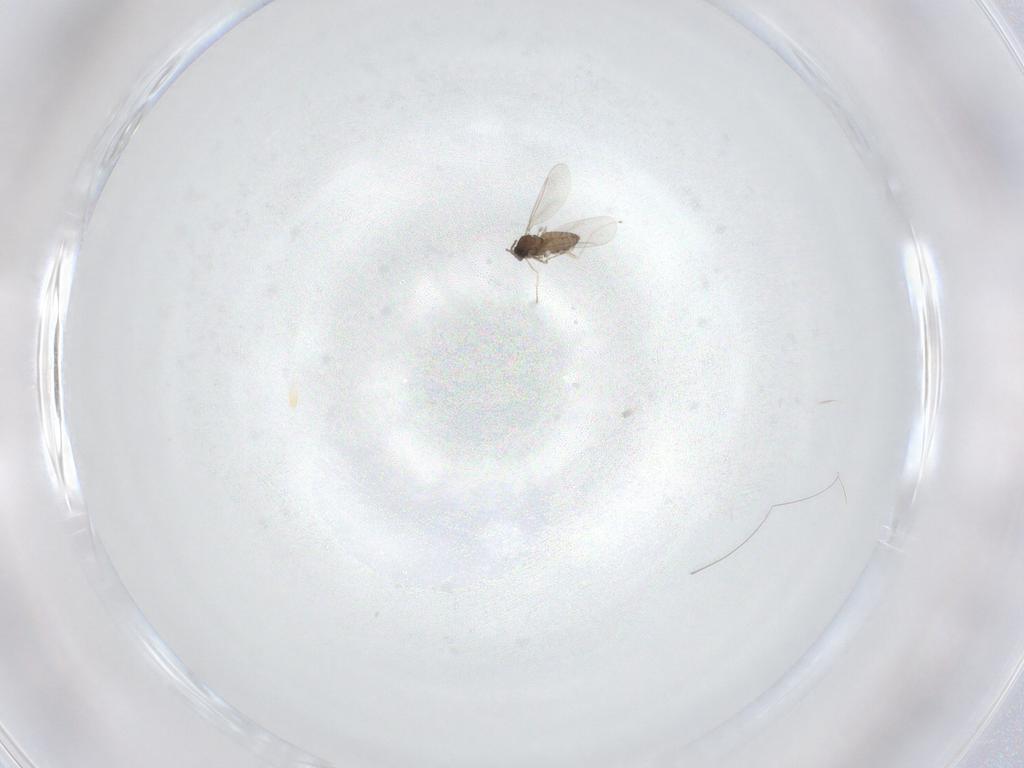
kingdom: Animalia
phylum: Arthropoda
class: Insecta
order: Diptera
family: Cecidomyiidae
